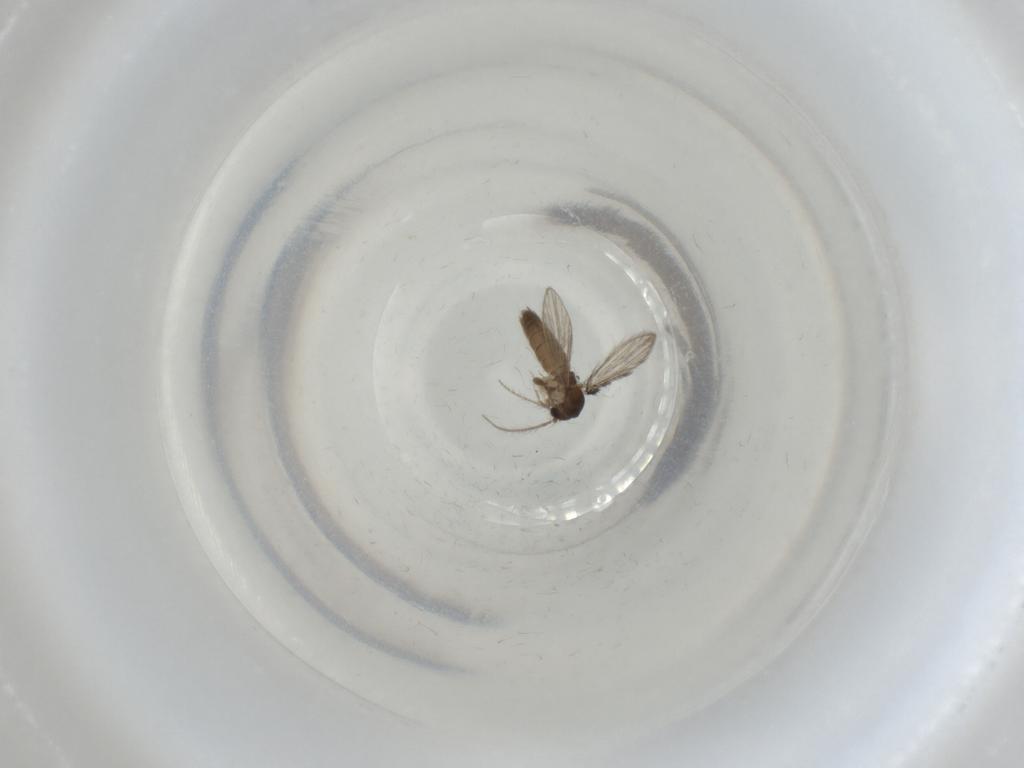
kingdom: Animalia
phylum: Arthropoda
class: Insecta
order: Diptera
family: Psychodidae
